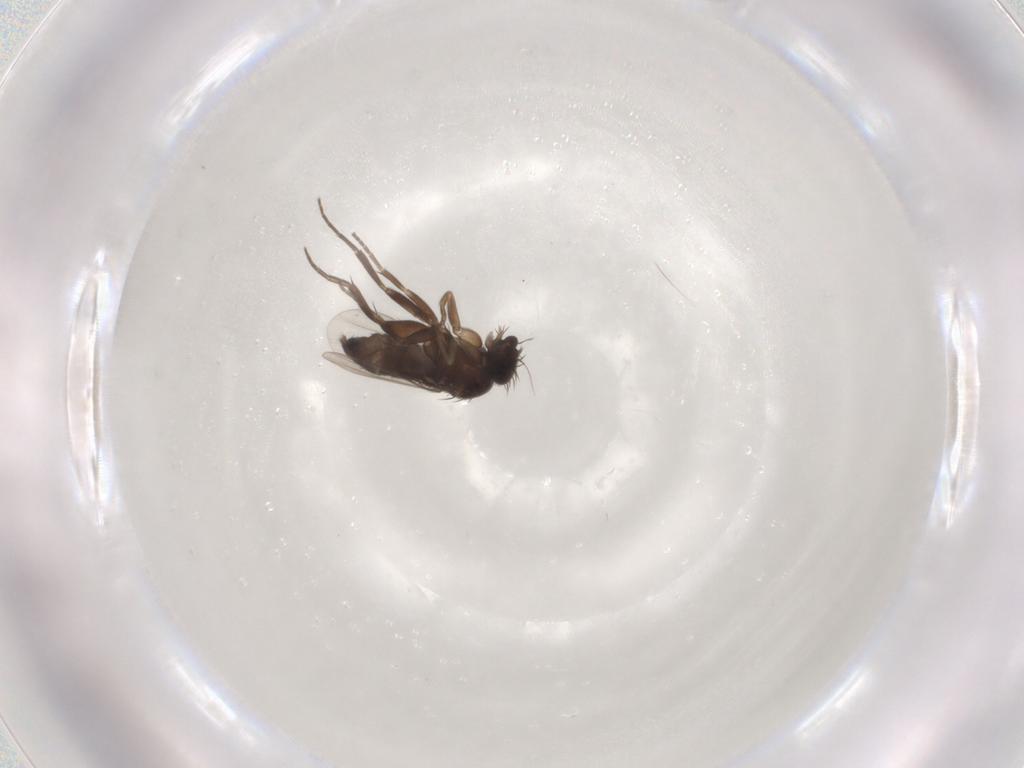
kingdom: Animalia
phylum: Arthropoda
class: Insecta
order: Diptera
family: Phoridae
